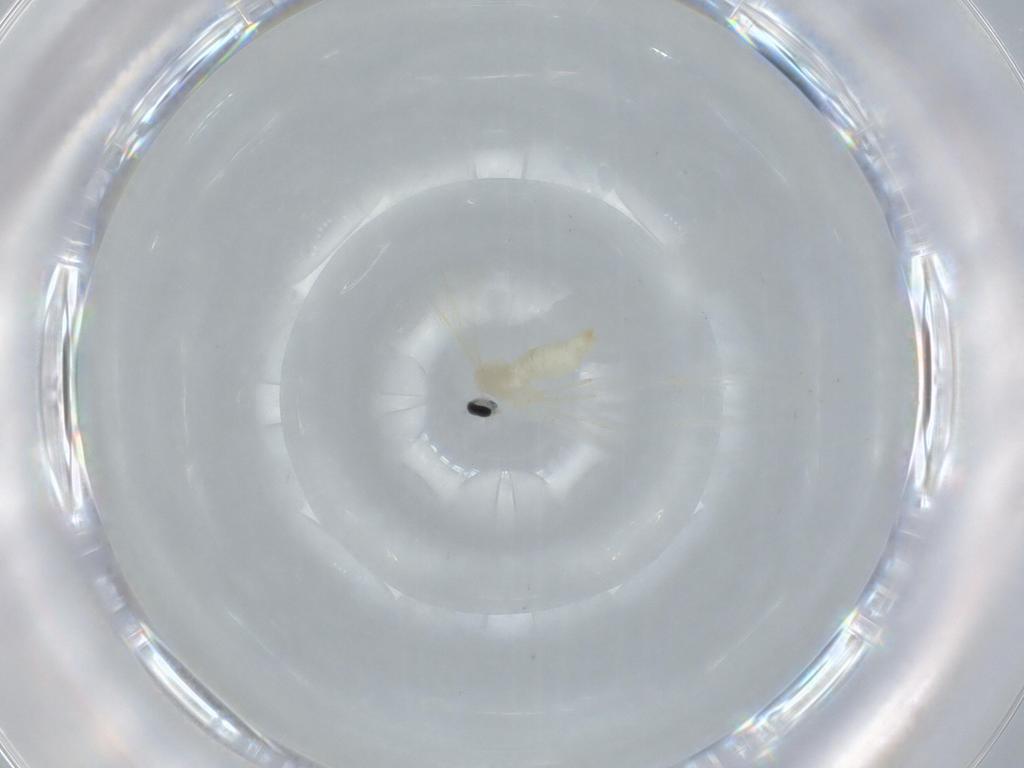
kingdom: Animalia
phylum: Arthropoda
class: Insecta
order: Diptera
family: Cecidomyiidae
